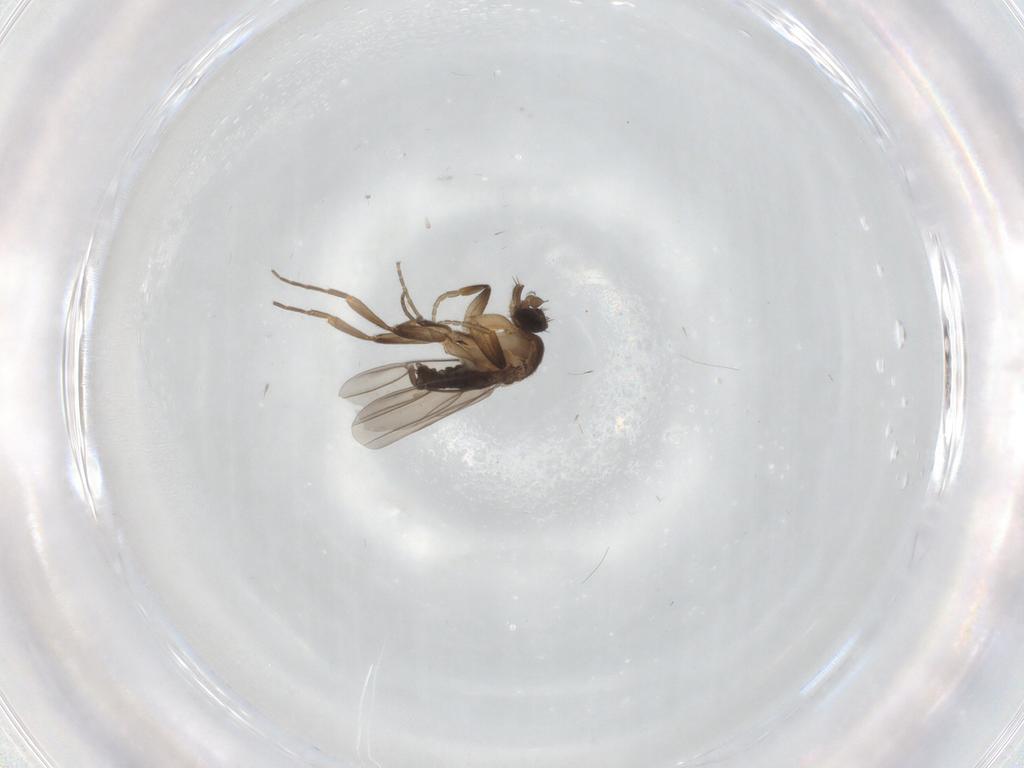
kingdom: Animalia
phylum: Arthropoda
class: Insecta
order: Diptera
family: Phoridae
